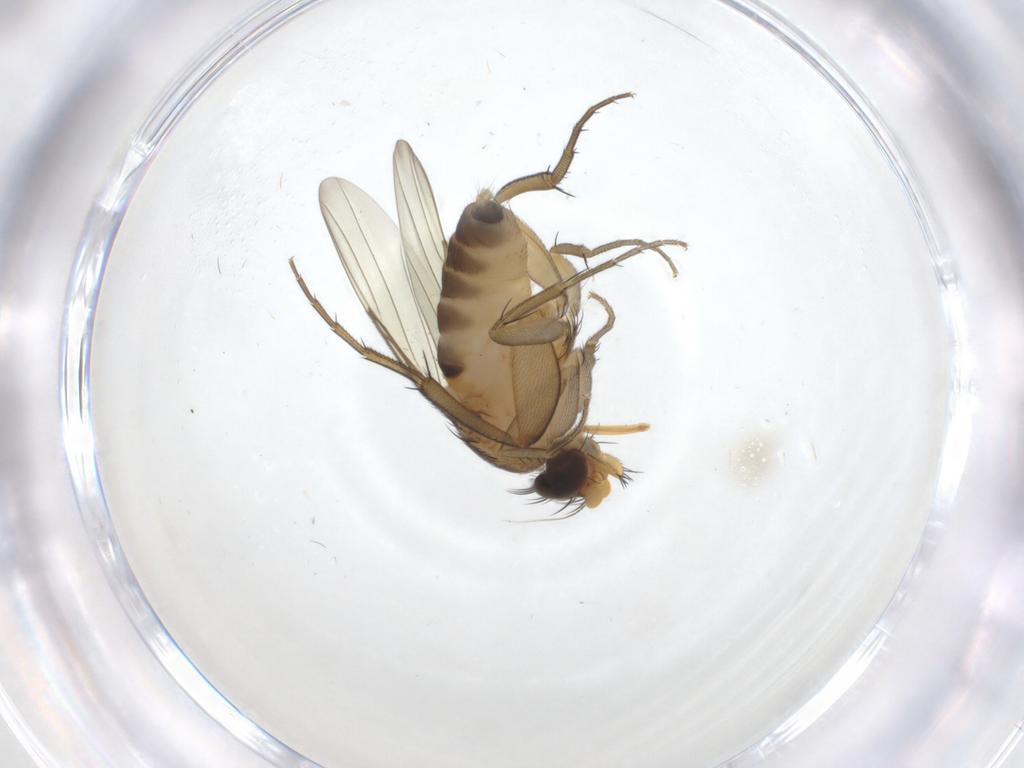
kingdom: Animalia
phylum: Arthropoda
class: Insecta
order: Diptera
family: Phoridae
